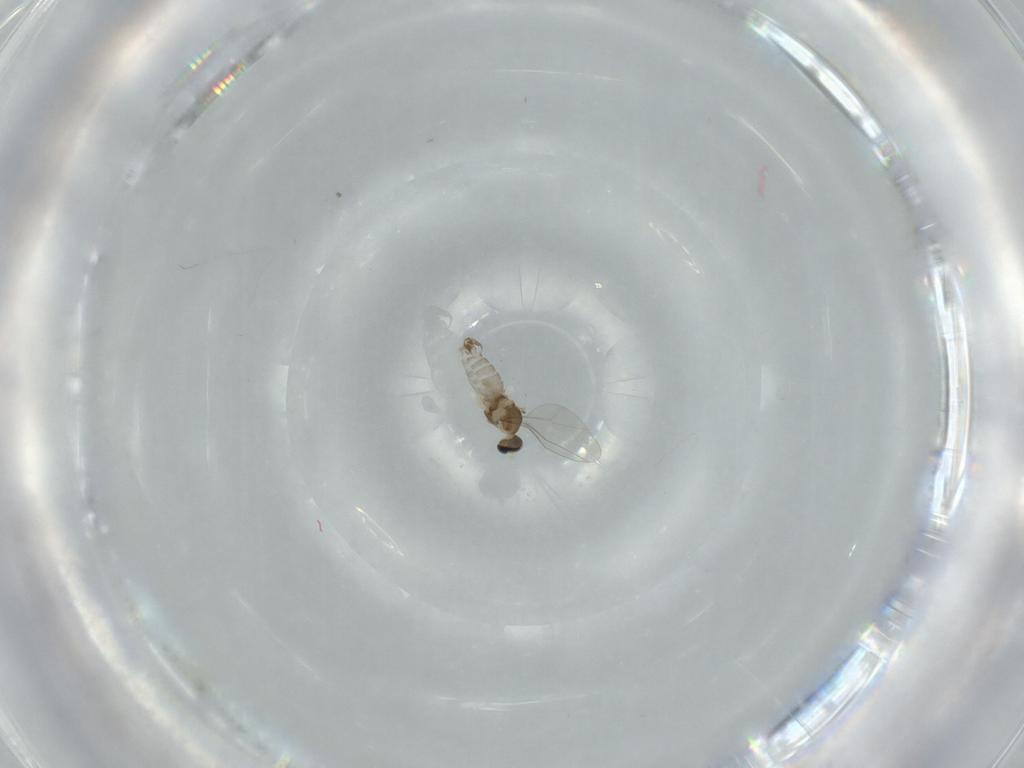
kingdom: Animalia
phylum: Arthropoda
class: Insecta
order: Diptera
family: Cecidomyiidae
